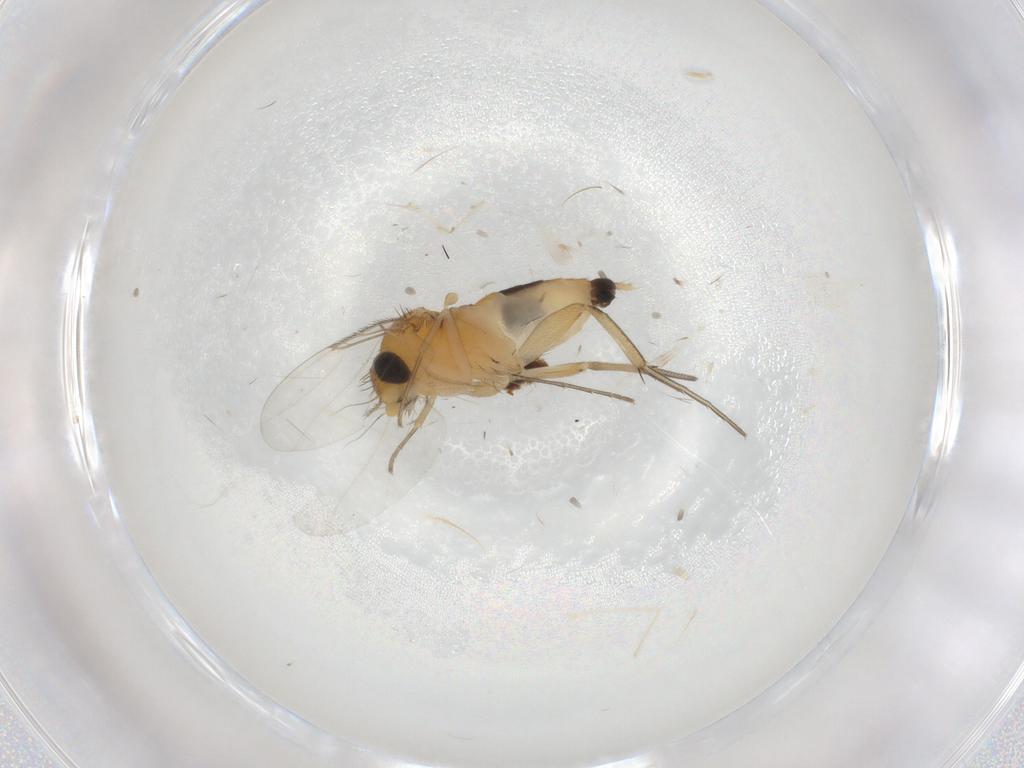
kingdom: Animalia
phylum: Arthropoda
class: Insecta
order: Diptera
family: Phoridae
